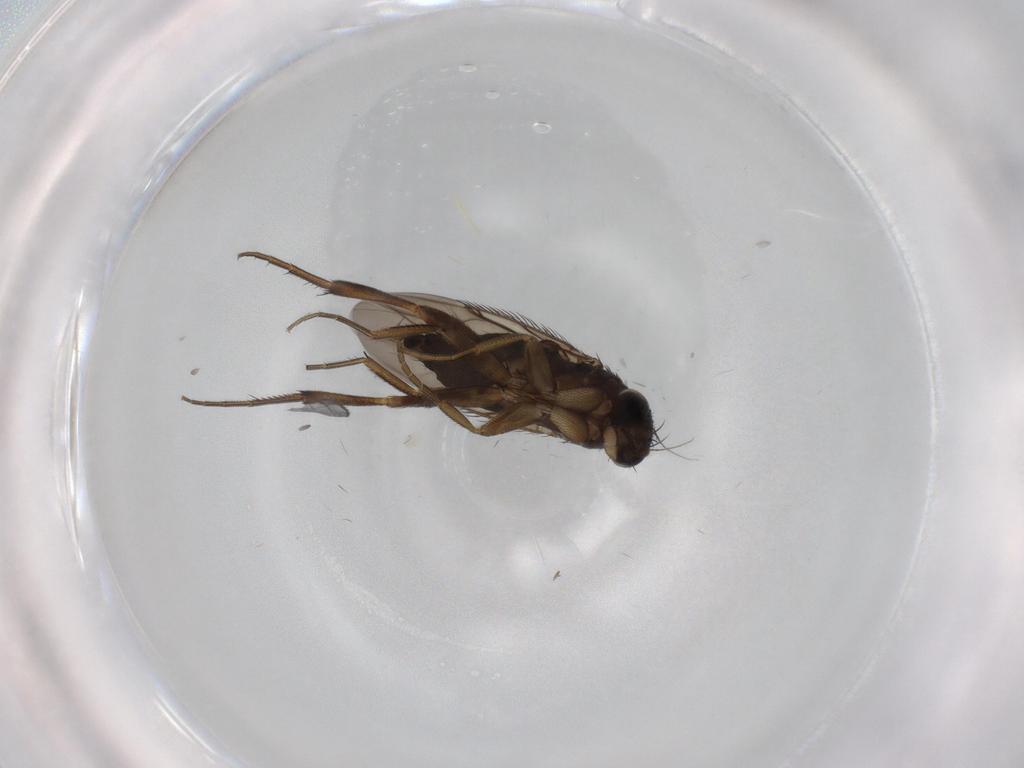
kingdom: Animalia
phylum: Arthropoda
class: Insecta
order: Diptera
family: Phoridae
